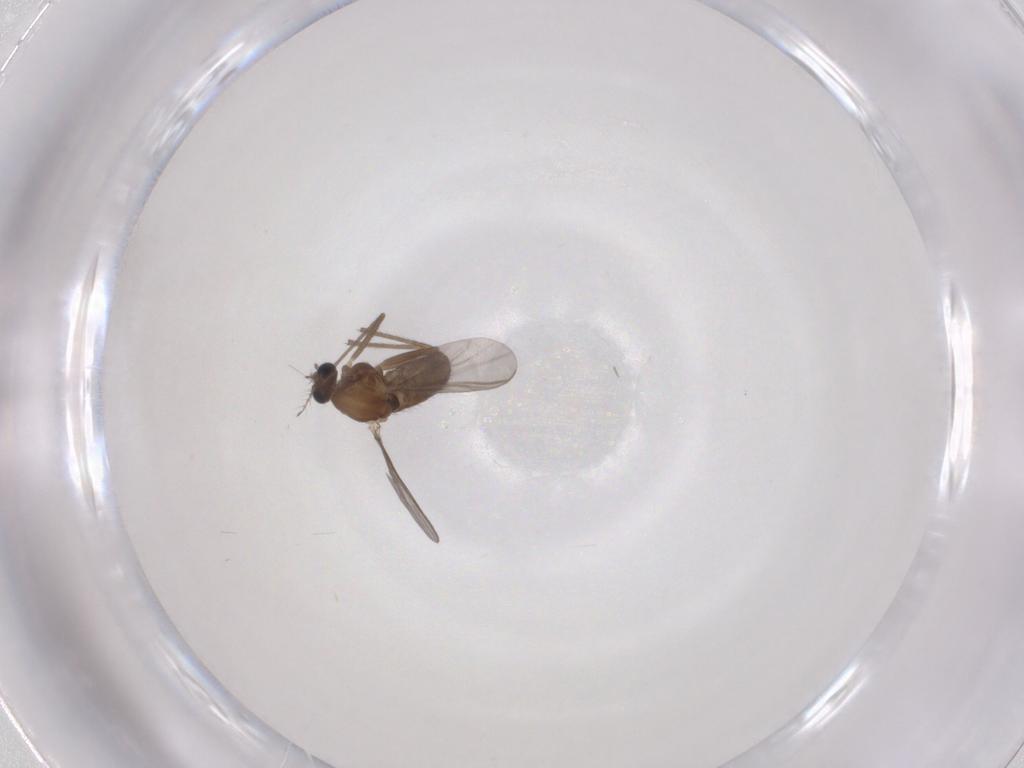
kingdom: Animalia
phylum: Arthropoda
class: Insecta
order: Diptera
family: Chironomidae
